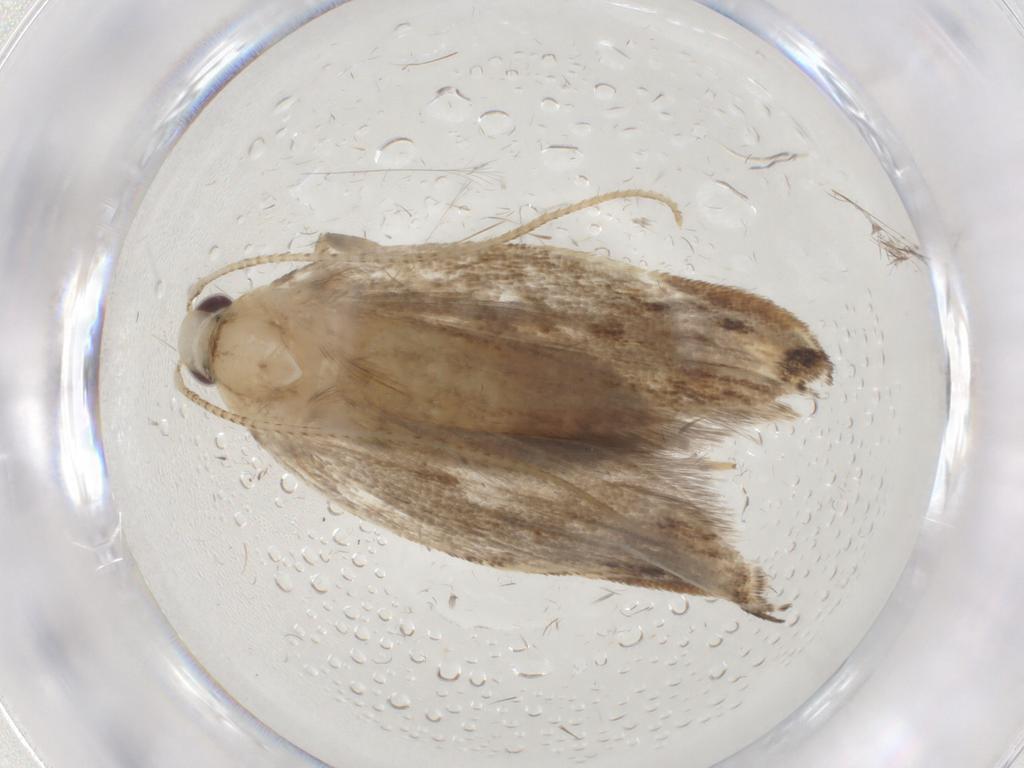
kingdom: Animalia
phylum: Arthropoda
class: Insecta
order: Lepidoptera
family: Gelechiidae
